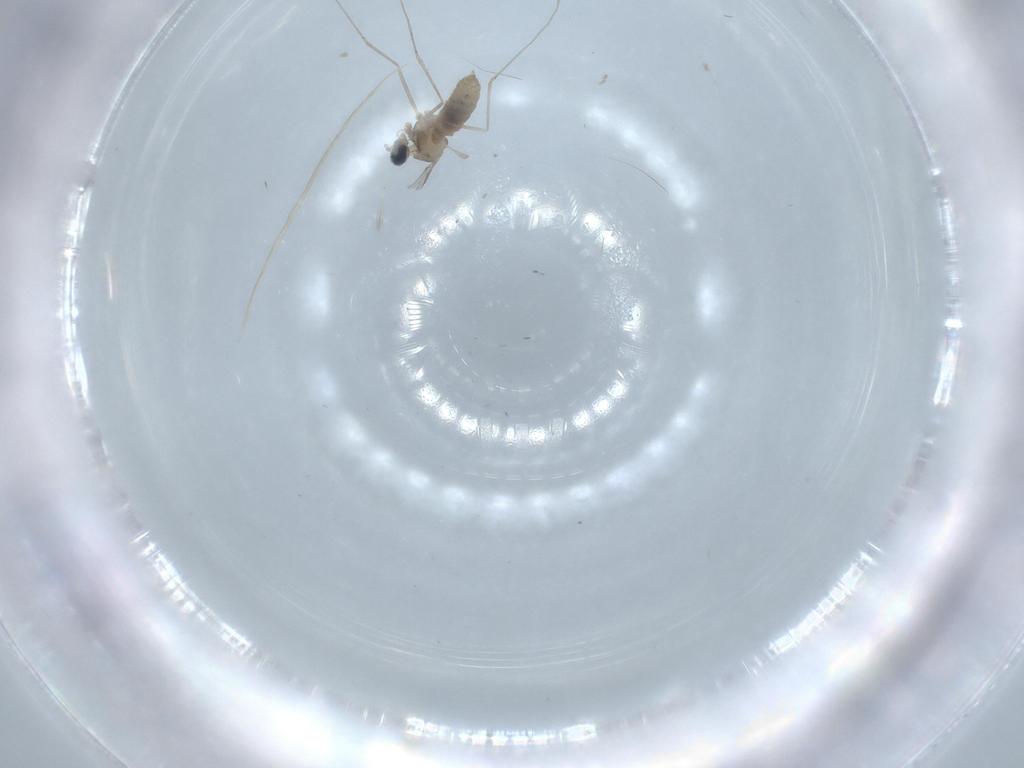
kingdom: Animalia
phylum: Arthropoda
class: Insecta
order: Diptera
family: Cecidomyiidae
